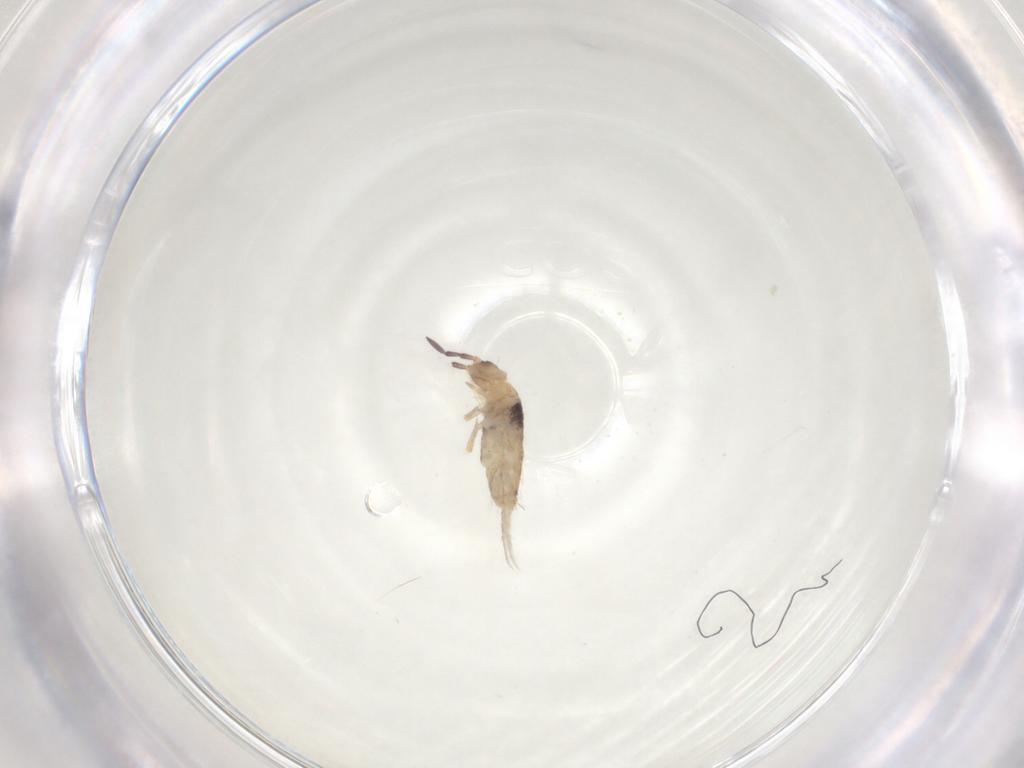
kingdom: Animalia
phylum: Arthropoda
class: Collembola
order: Entomobryomorpha
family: Entomobryidae
